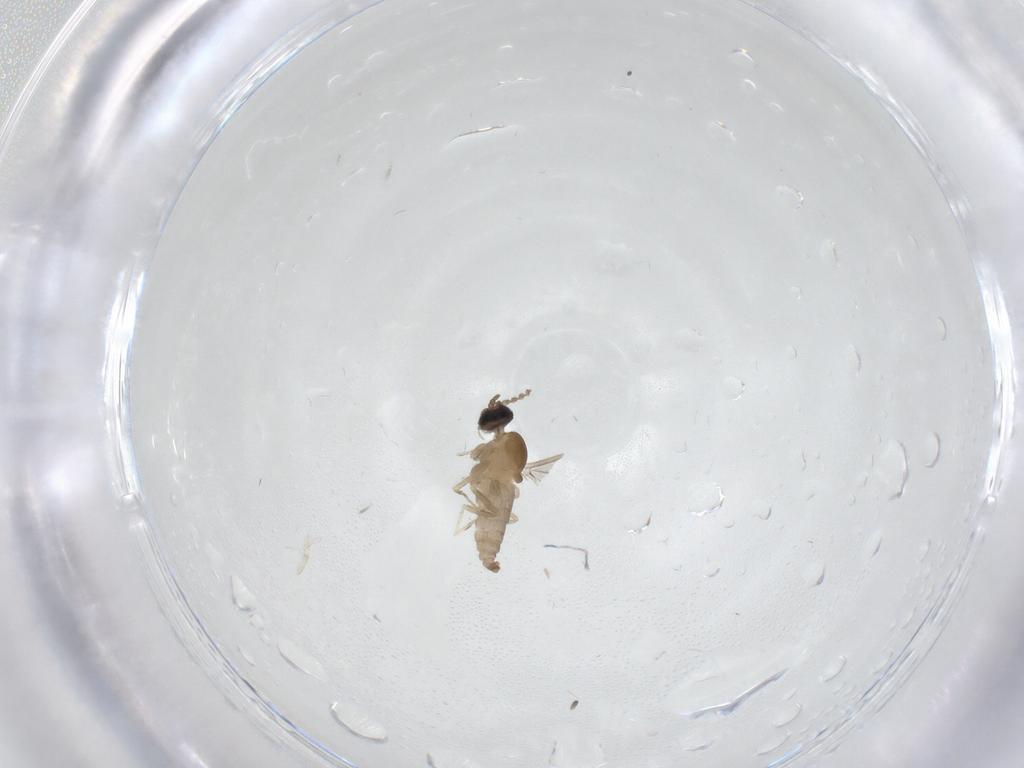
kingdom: Animalia
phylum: Arthropoda
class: Insecta
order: Diptera
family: Cecidomyiidae
